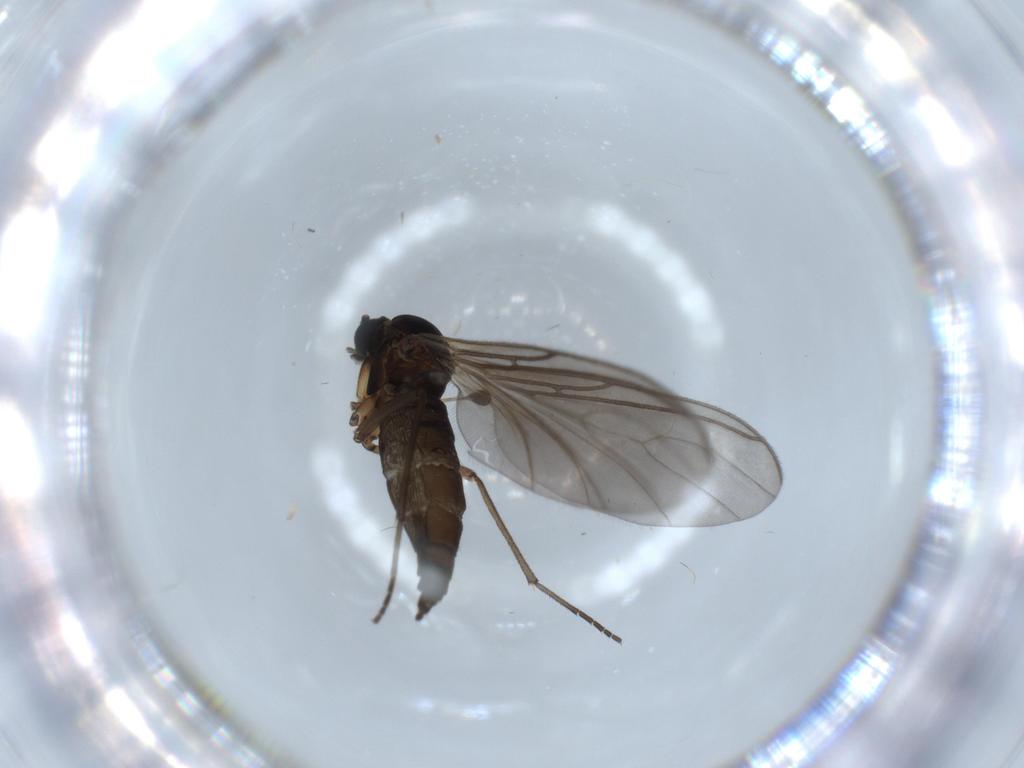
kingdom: Animalia
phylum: Arthropoda
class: Insecta
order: Diptera
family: Sciaridae
